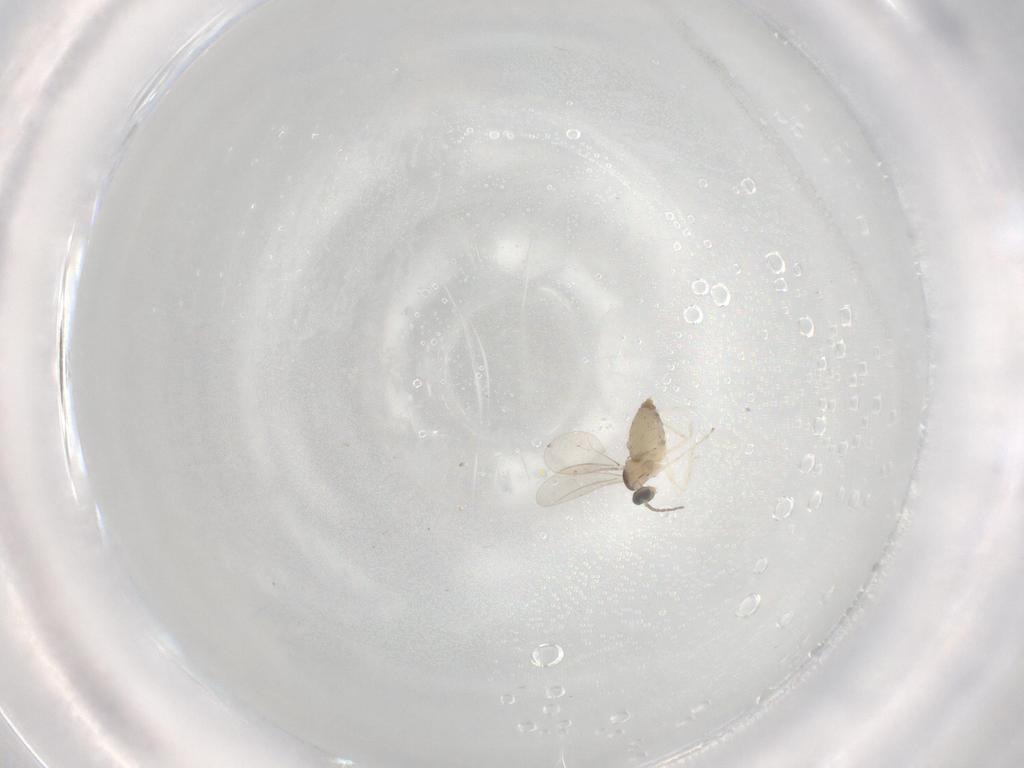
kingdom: Animalia
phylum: Arthropoda
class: Insecta
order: Diptera
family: Cecidomyiidae
